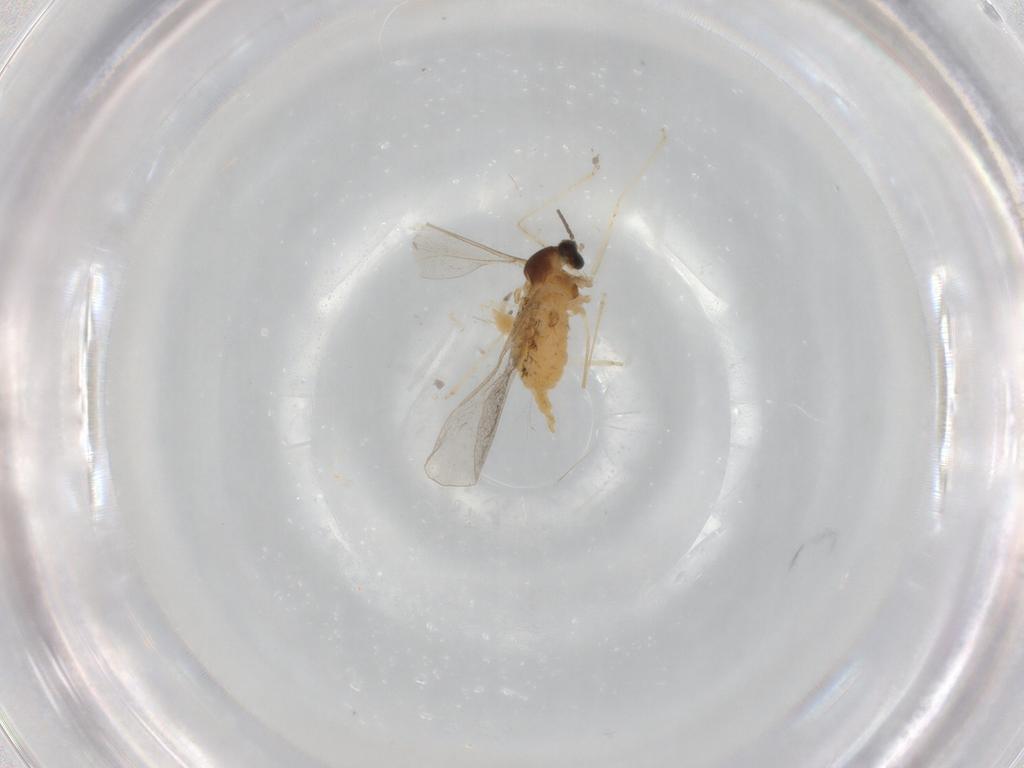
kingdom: Animalia
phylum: Arthropoda
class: Insecta
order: Diptera
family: Cecidomyiidae
